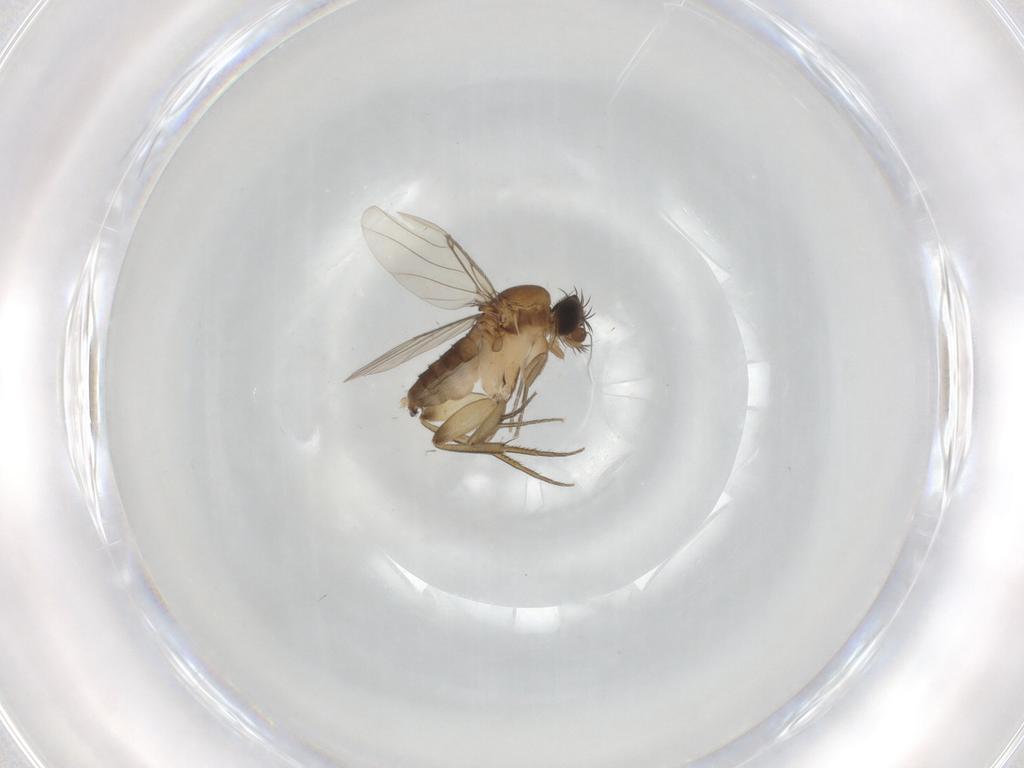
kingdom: Animalia
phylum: Arthropoda
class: Insecta
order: Diptera
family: Phoridae
